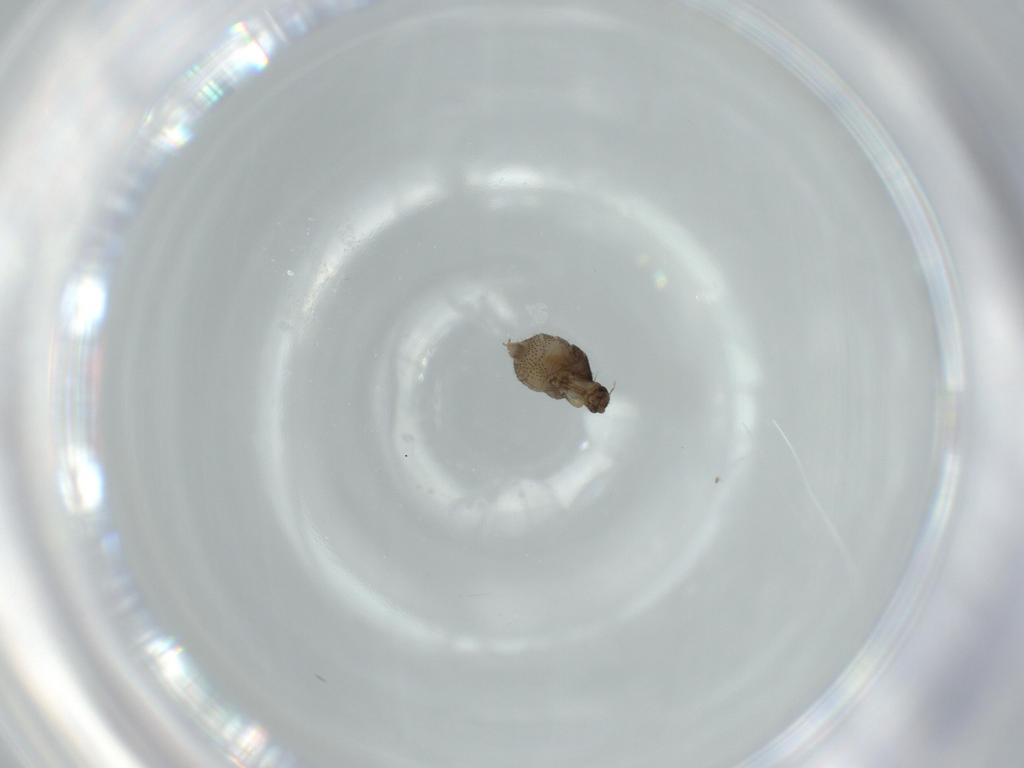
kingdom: Animalia
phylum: Arthropoda
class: Insecta
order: Diptera
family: Phoridae
